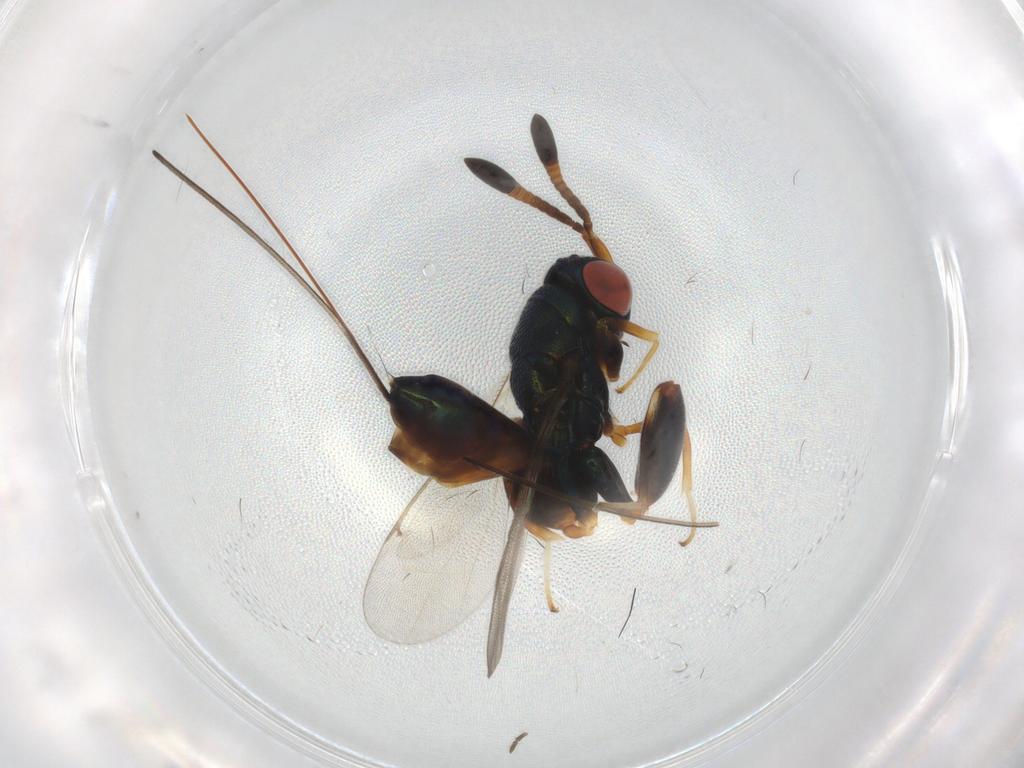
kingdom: Animalia
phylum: Arthropoda
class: Insecta
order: Hymenoptera
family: Torymidae
